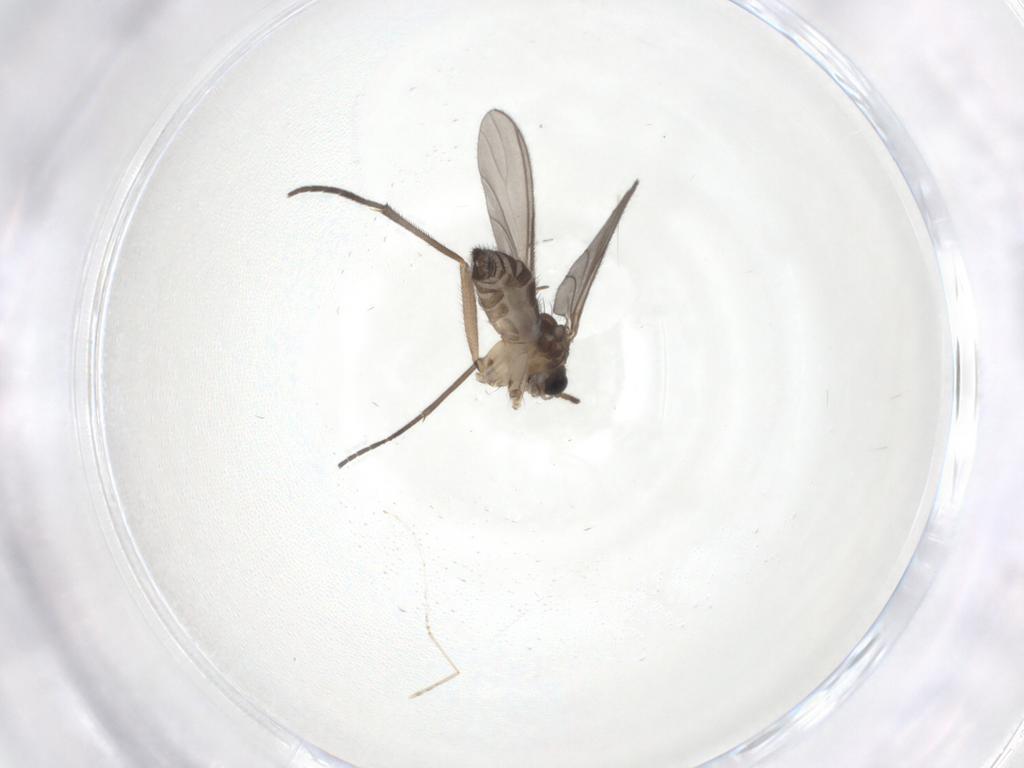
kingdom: Animalia
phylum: Arthropoda
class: Insecta
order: Diptera
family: Sciaridae
